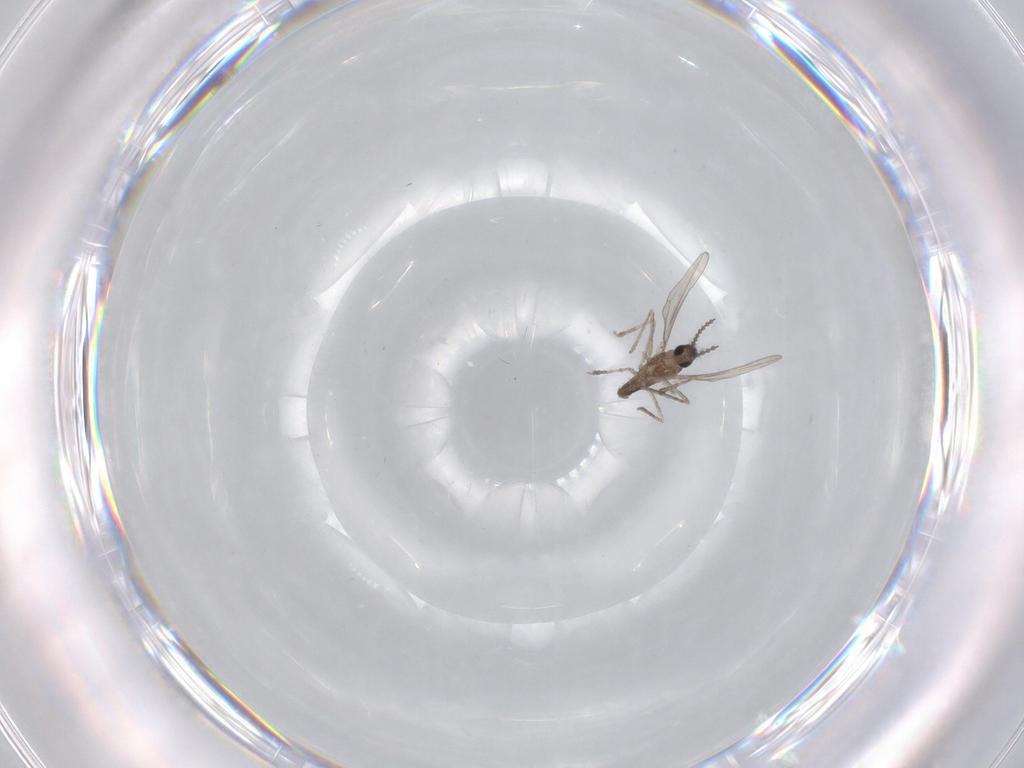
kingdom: Animalia
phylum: Arthropoda
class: Insecta
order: Diptera
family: Cecidomyiidae
